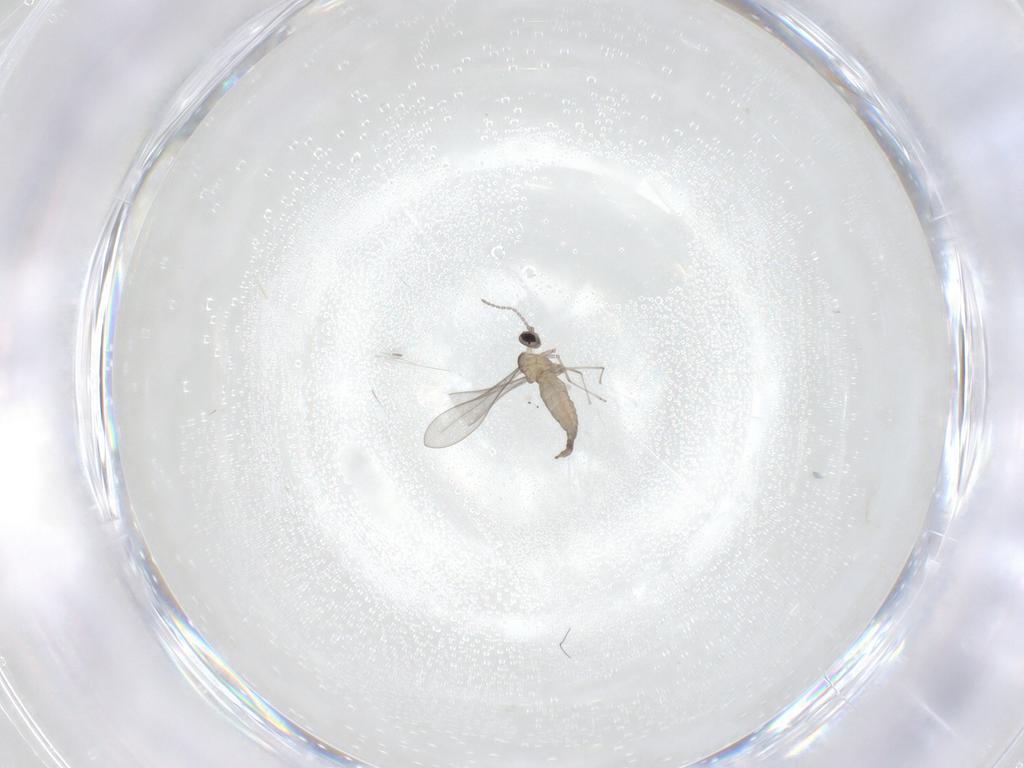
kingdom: Animalia
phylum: Arthropoda
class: Insecta
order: Diptera
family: Cecidomyiidae
